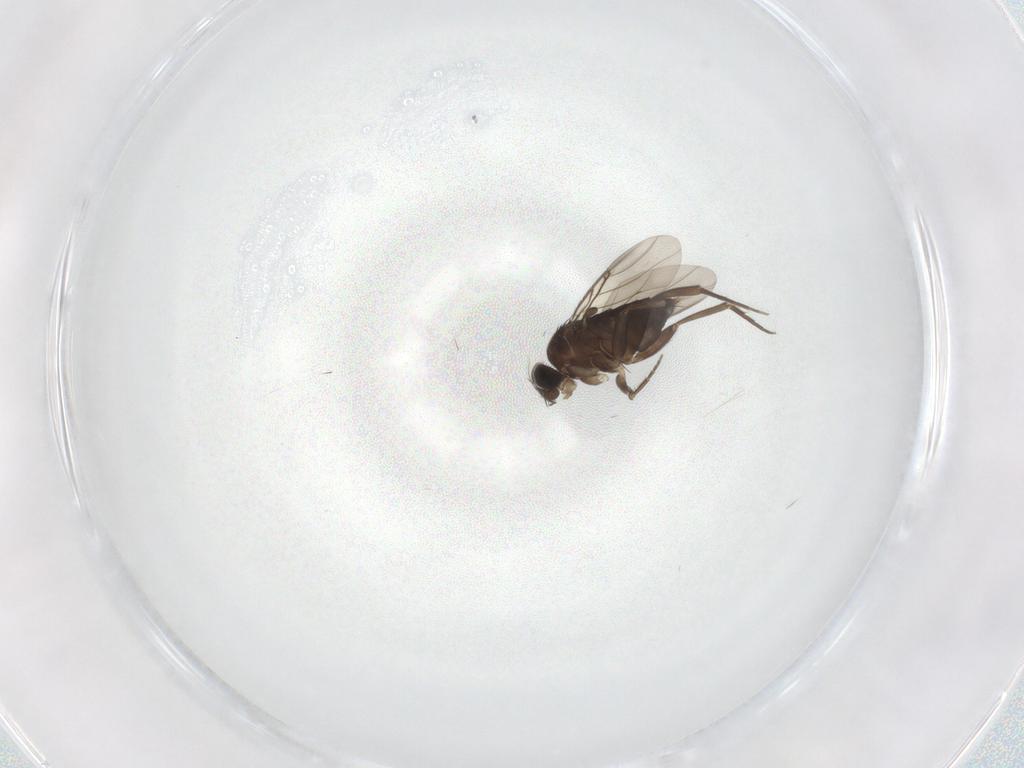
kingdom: Animalia
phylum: Arthropoda
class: Insecta
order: Diptera
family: Phoridae
